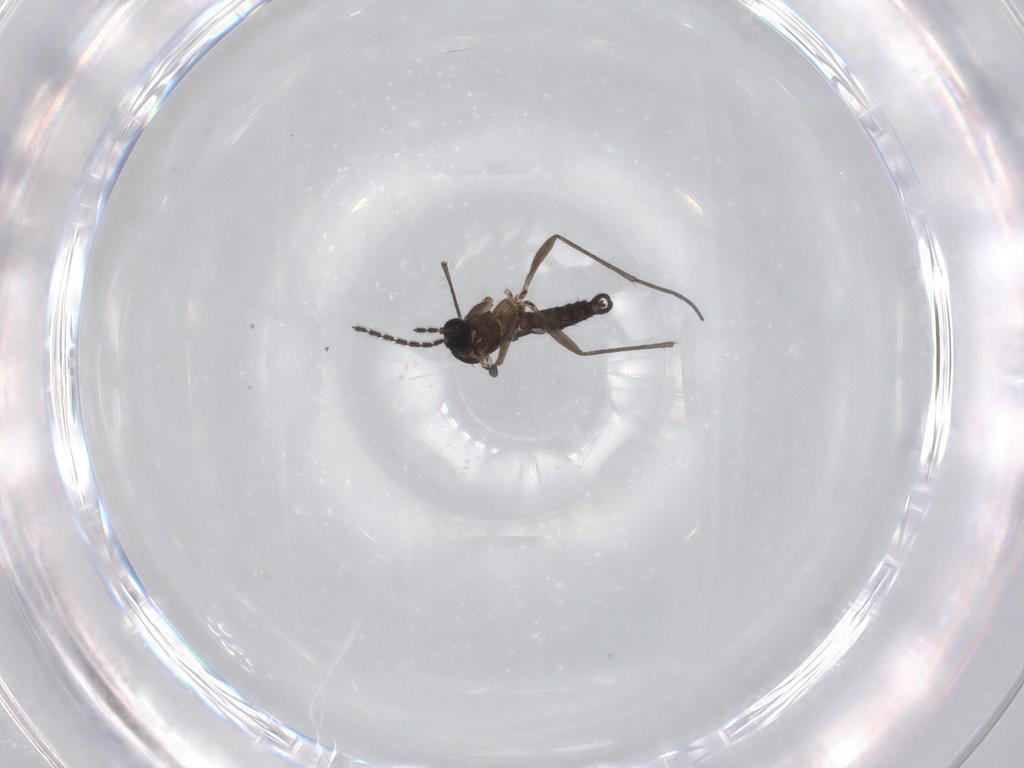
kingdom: Animalia
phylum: Arthropoda
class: Insecta
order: Diptera
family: Sciaridae
